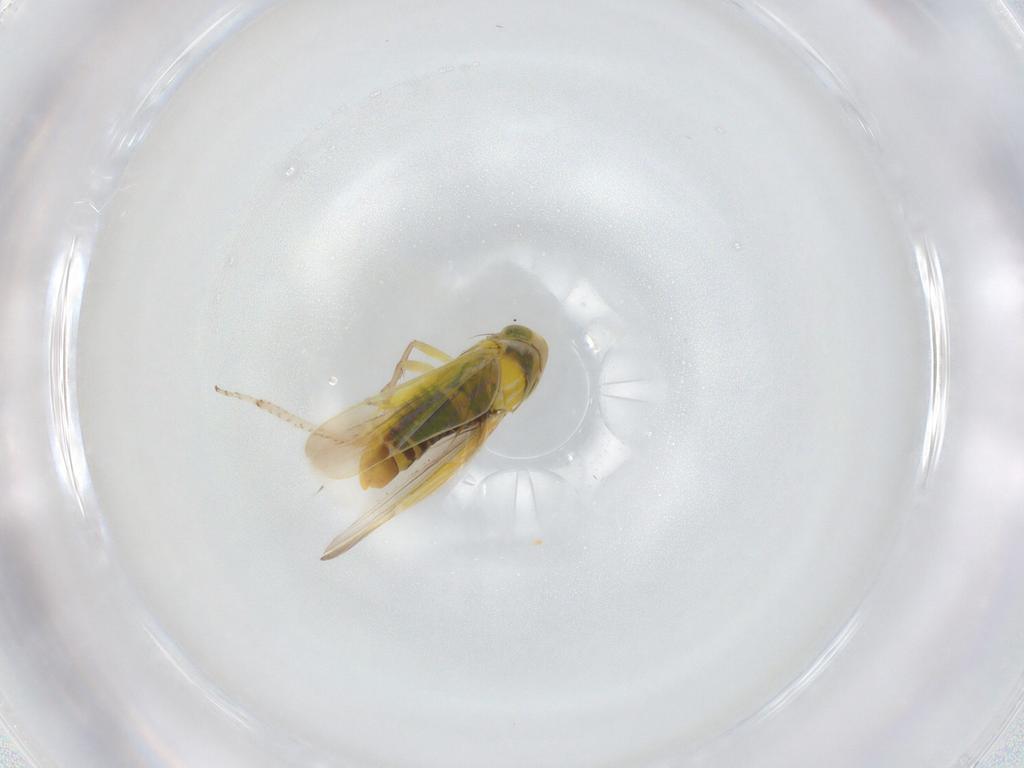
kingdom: Animalia
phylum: Arthropoda
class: Insecta
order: Hemiptera
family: Cicadellidae
